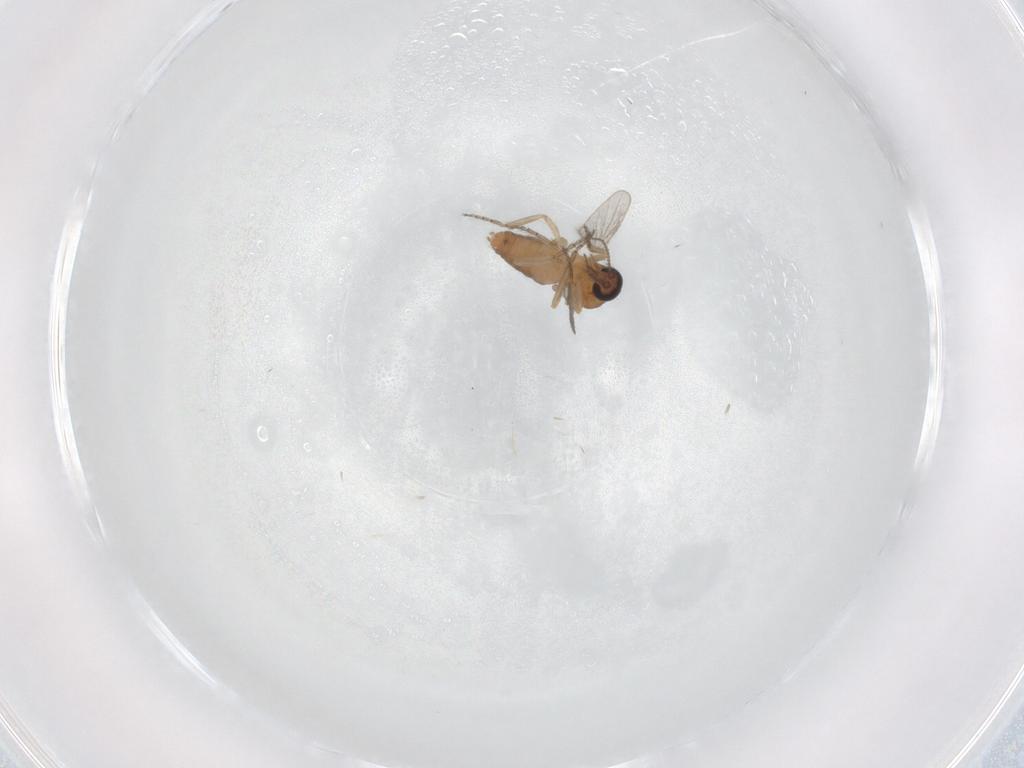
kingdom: Animalia
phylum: Arthropoda
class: Insecta
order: Diptera
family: Ceratopogonidae
